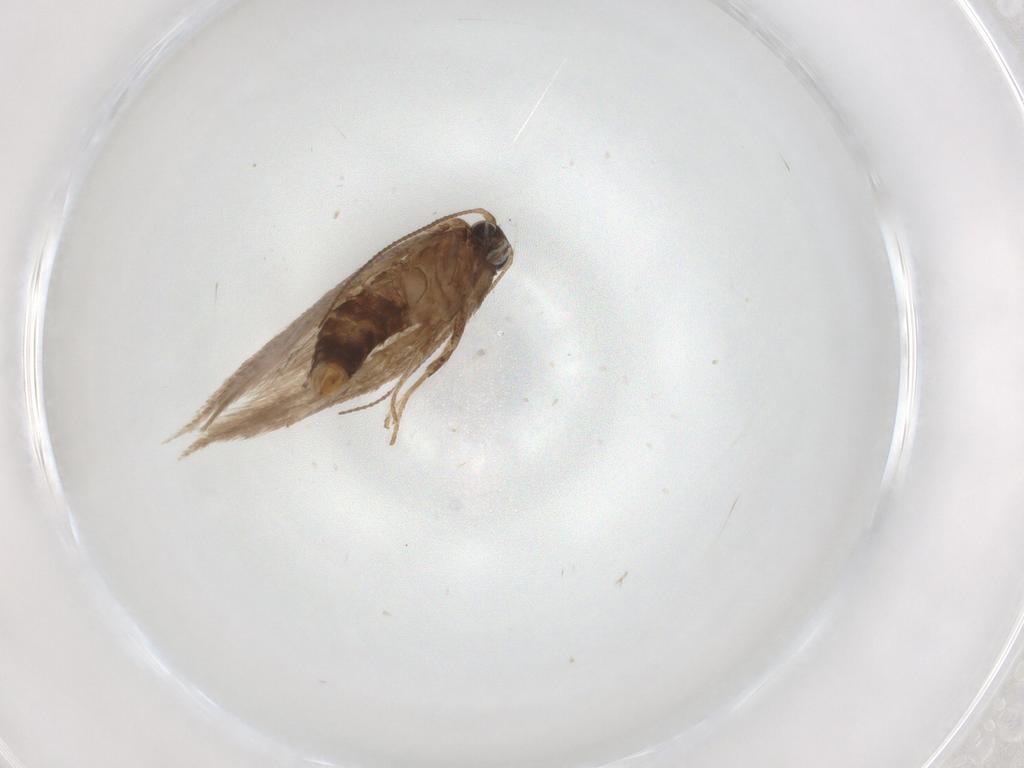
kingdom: Animalia
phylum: Arthropoda
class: Insecta
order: Lepidoptera
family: Nepticulidae
